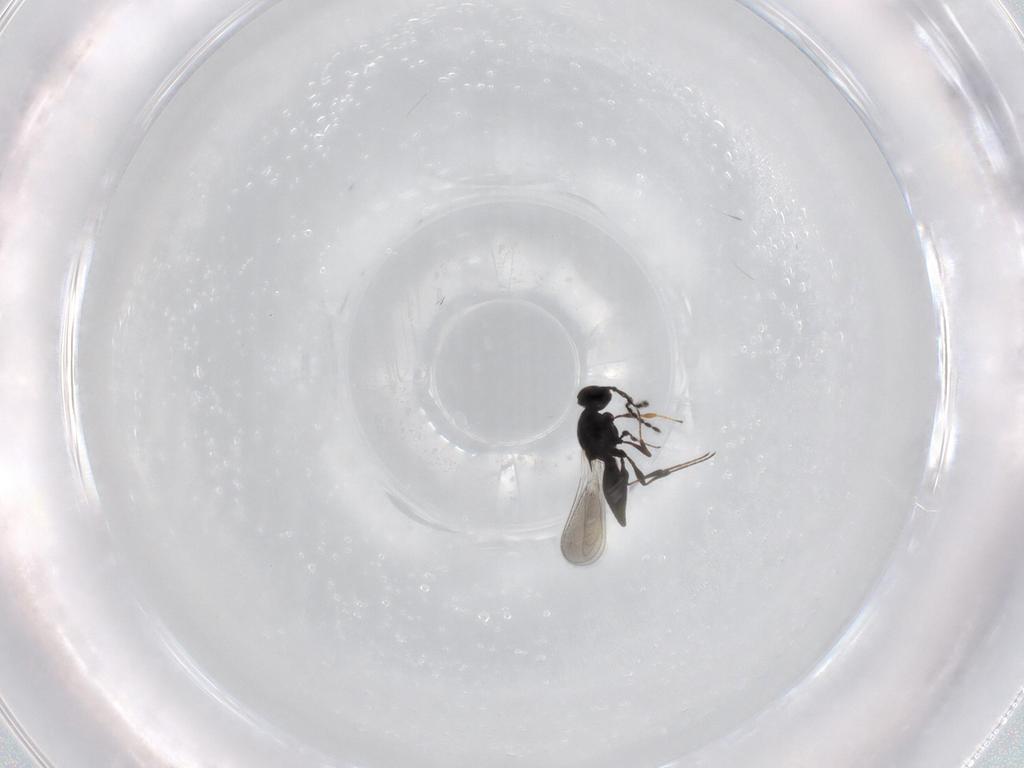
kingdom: Animalia
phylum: Arthropoda
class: Insecta
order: Hymenoptera
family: Platygastridae
